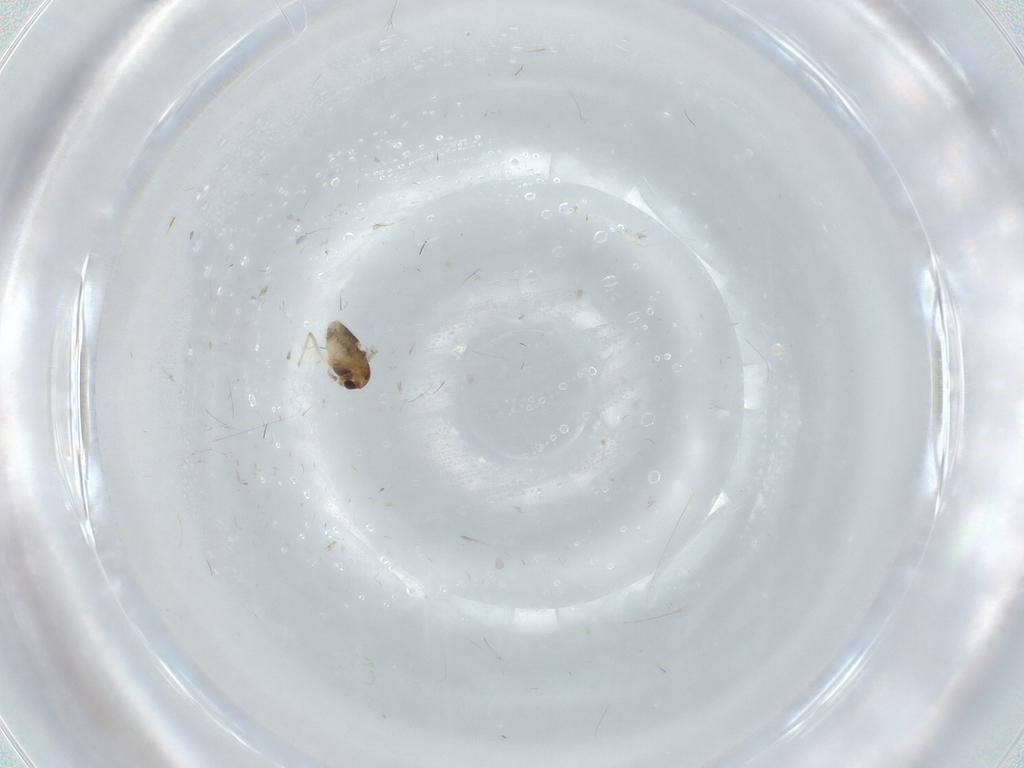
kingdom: Animalia
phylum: Arthropoda
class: Insecta
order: Diptera
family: Chironomidae
